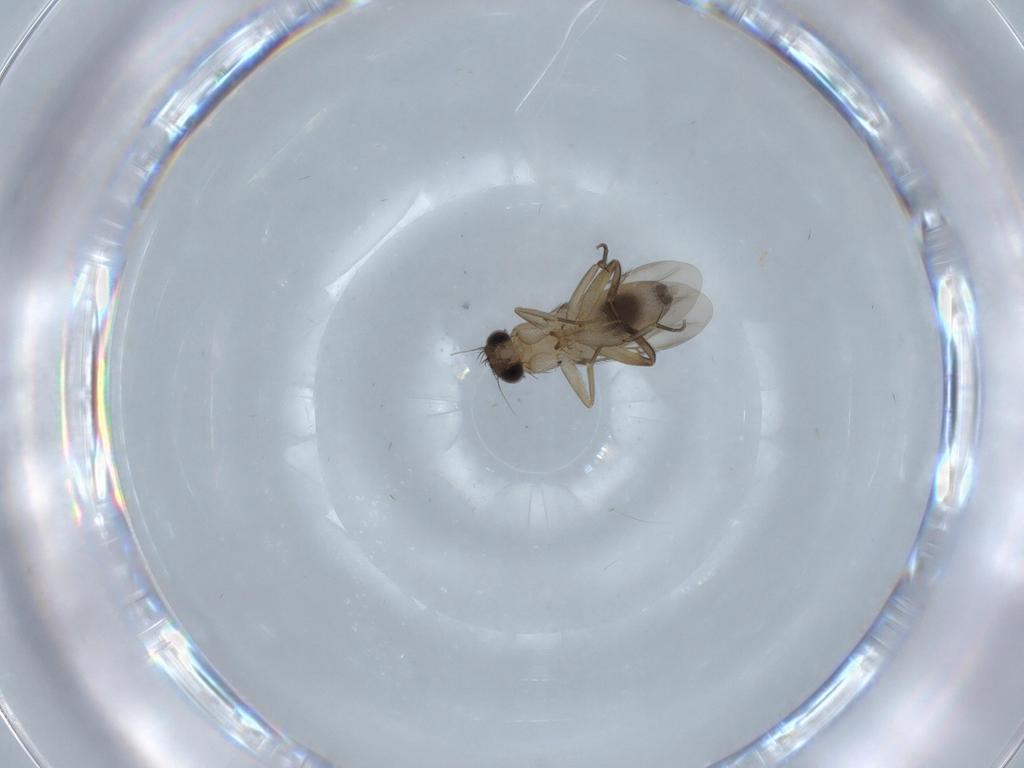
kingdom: Animalia
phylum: Arthropoda
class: Insecta
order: Diptera
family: Phoridae
